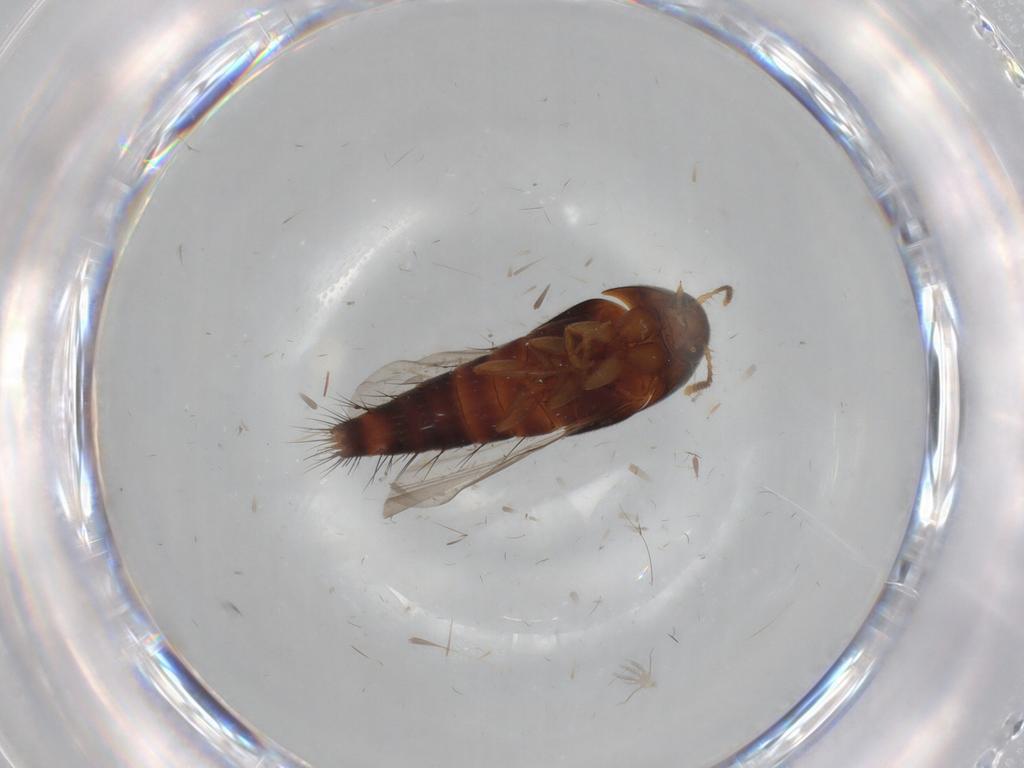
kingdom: Animalia
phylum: Arthropoda
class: Insecta
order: Coleoptera
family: Staphylinidae
